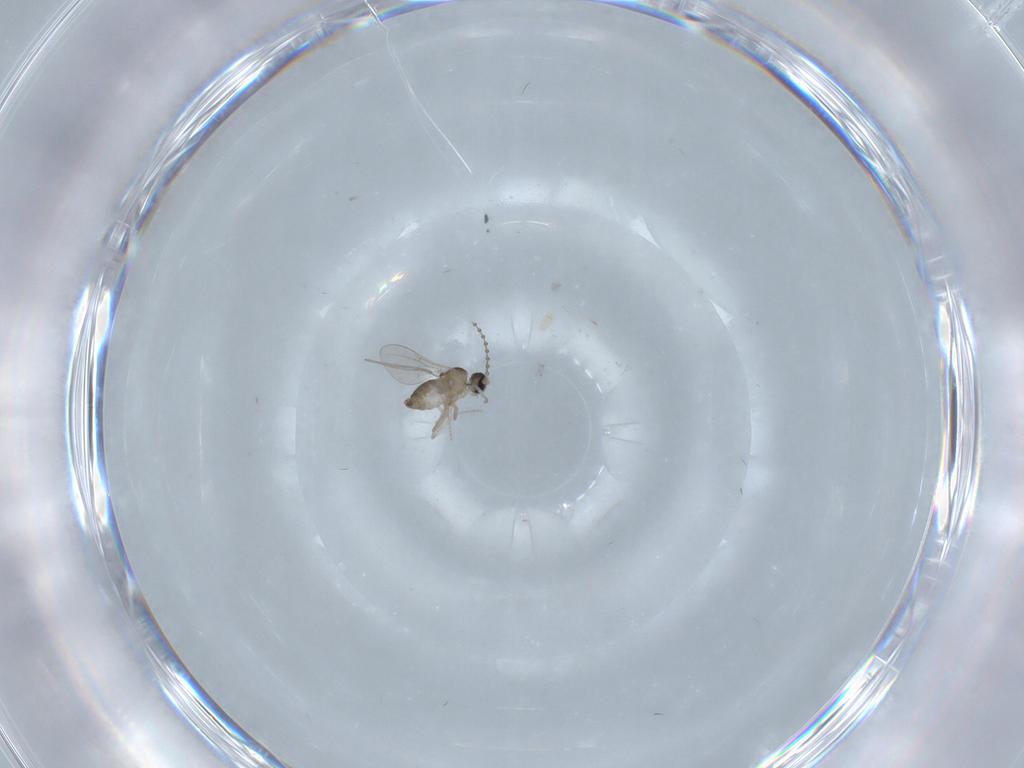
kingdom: Animalia
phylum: Arthropoda
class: Insecta
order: Diptera
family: Cecidomyiidae
